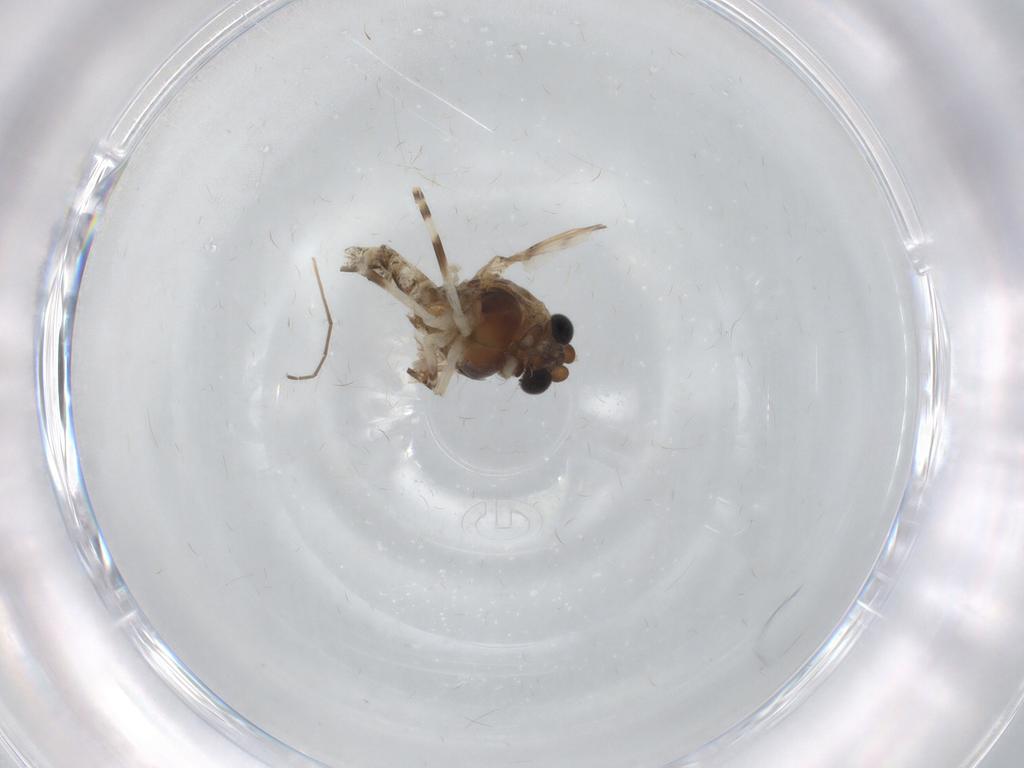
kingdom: Animalia
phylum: Arthropoda
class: Insecta
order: Diptera
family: Chironomidae
